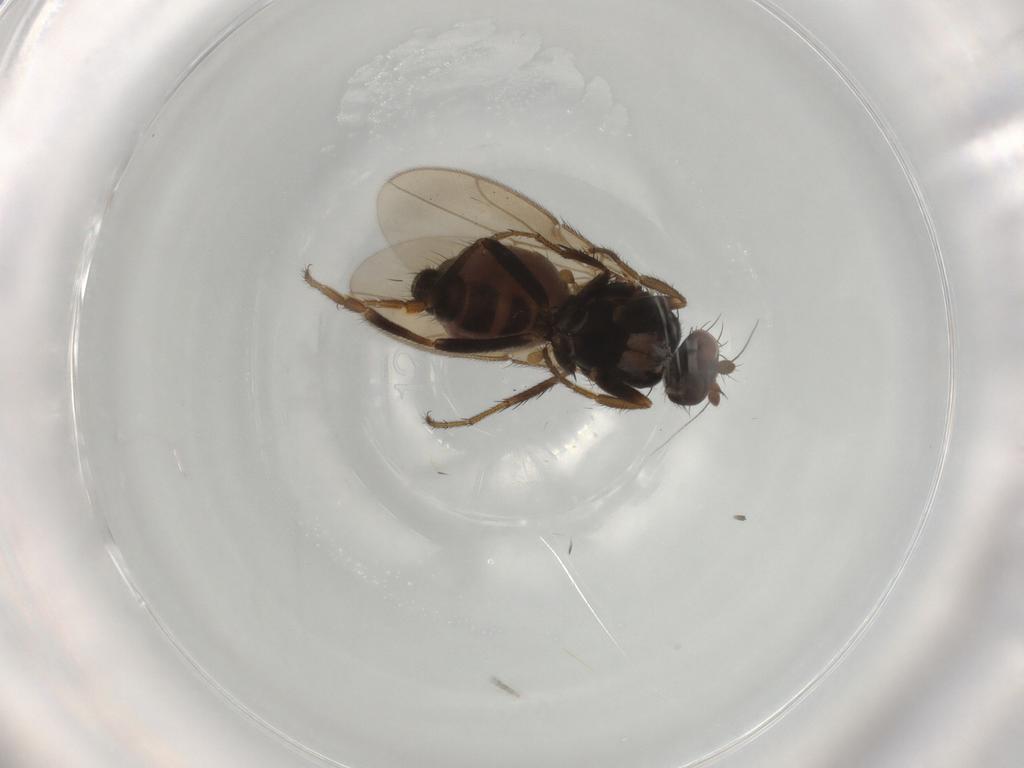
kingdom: Animalia
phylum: Arthropoda
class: Insecta
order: Diptera
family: Sphaeroceridae
